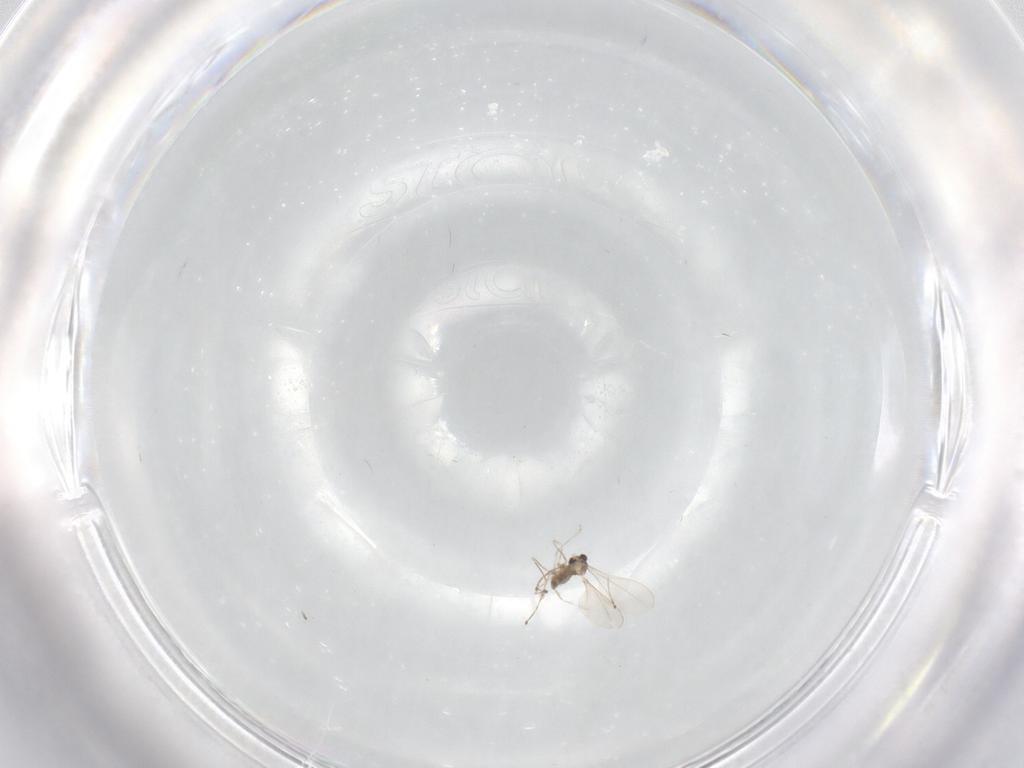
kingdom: Animalia
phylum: Arthropoda
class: Insecta
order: Diptera
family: Cecidomyiidae
